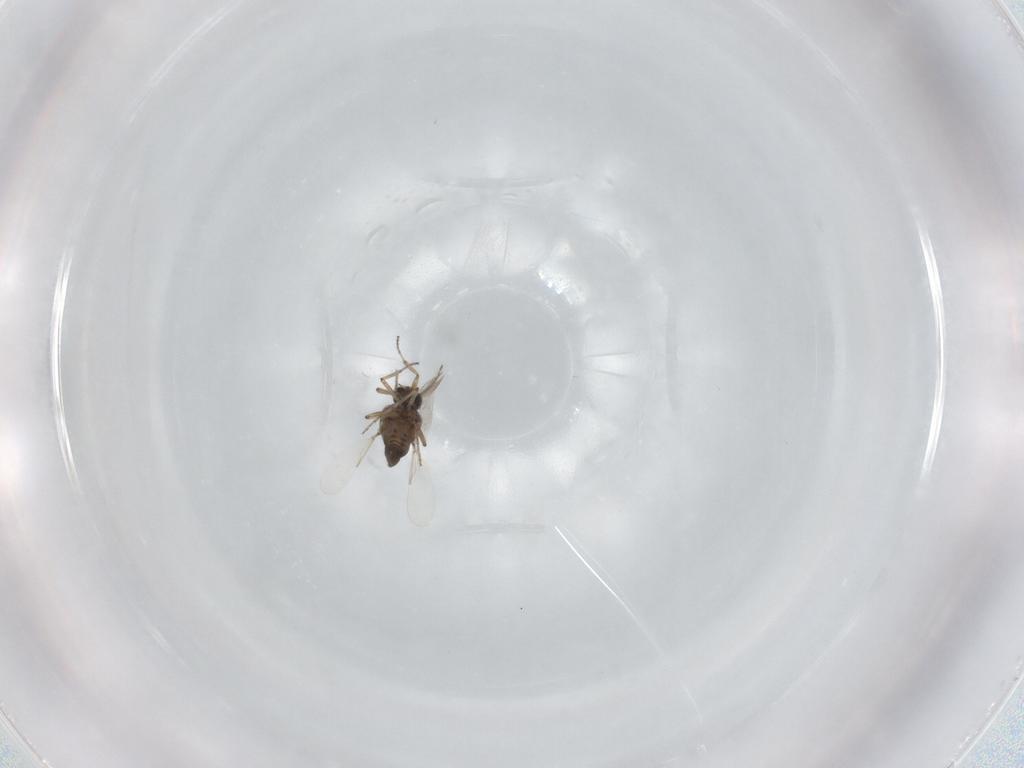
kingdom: Animalia
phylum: Arthropoda
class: Insecta
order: Diptera
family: Ceratopogonidae
